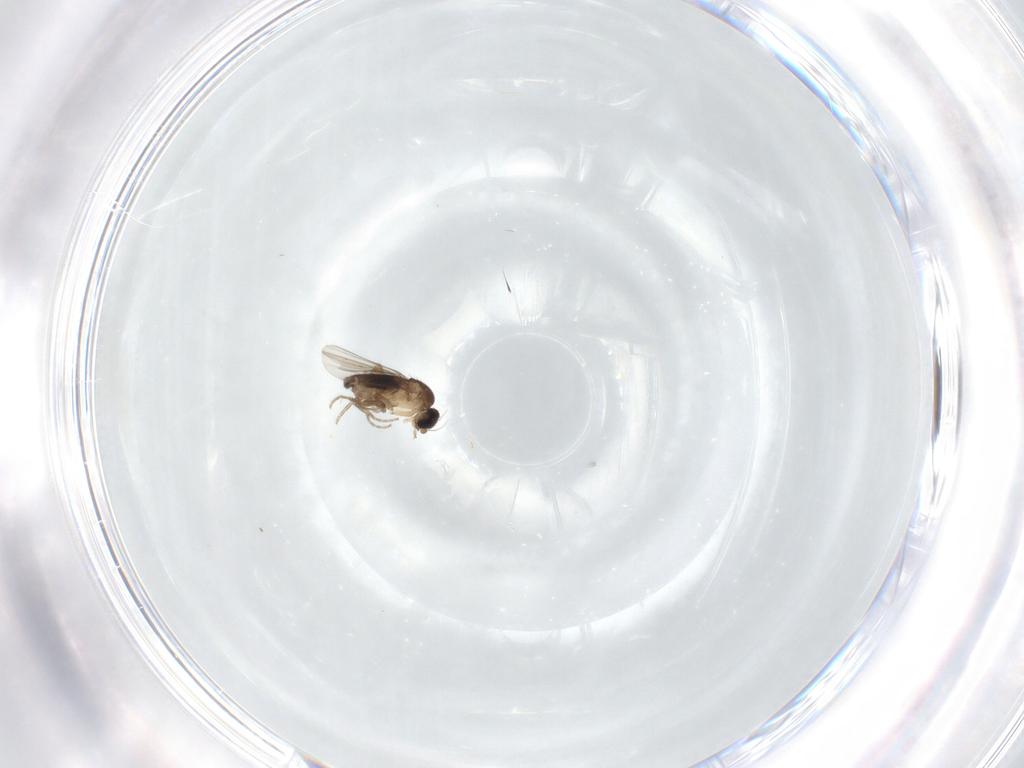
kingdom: Animalia
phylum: Arthropoda
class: Insecta
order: Diptera
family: Phoridae
